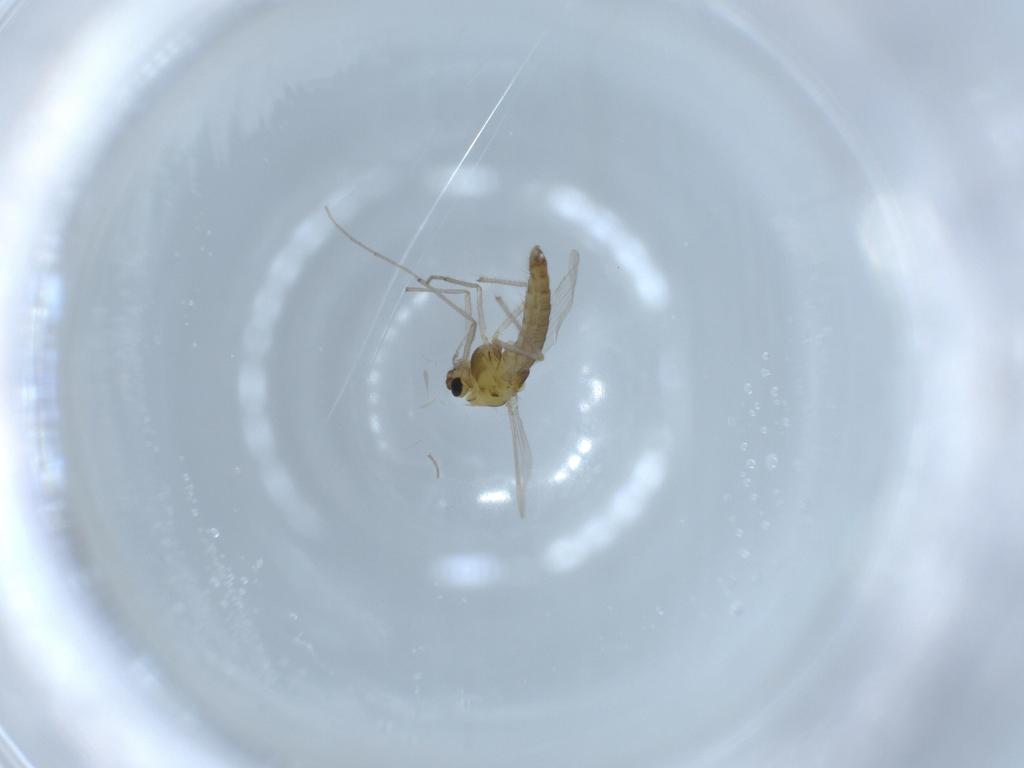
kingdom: Animalia
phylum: Arthropoda
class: Insecta
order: Diptera
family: Chironomidae
